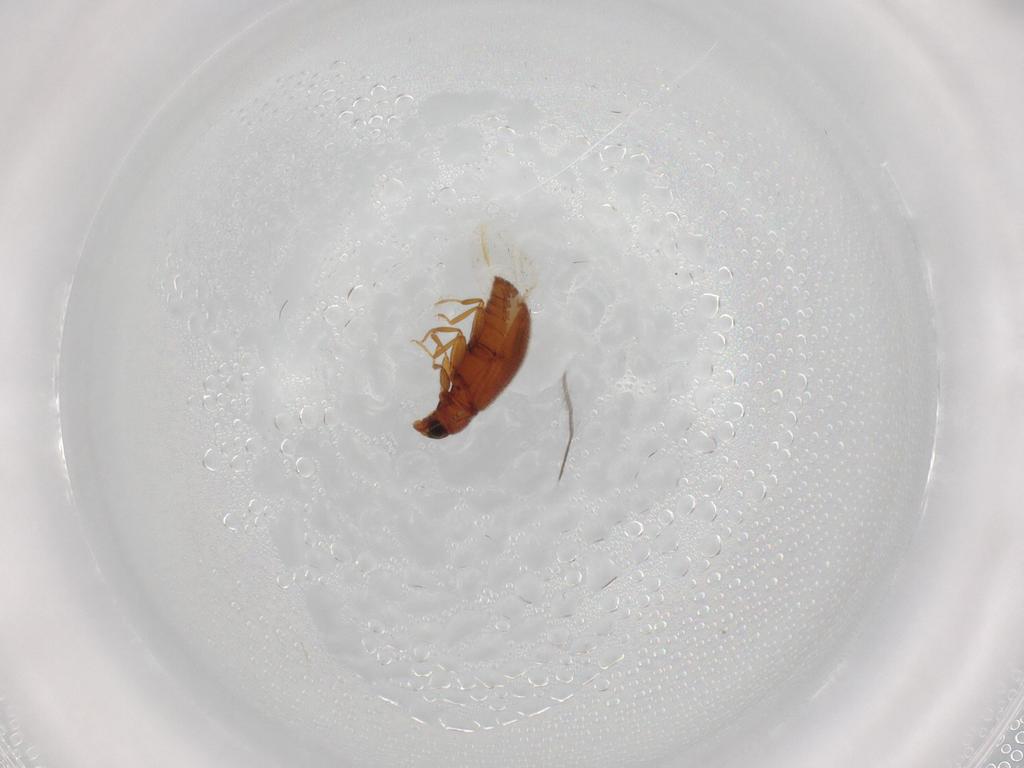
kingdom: Animalia
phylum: Arthropoda
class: Insecta
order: Coleoptera
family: Latridiidae
